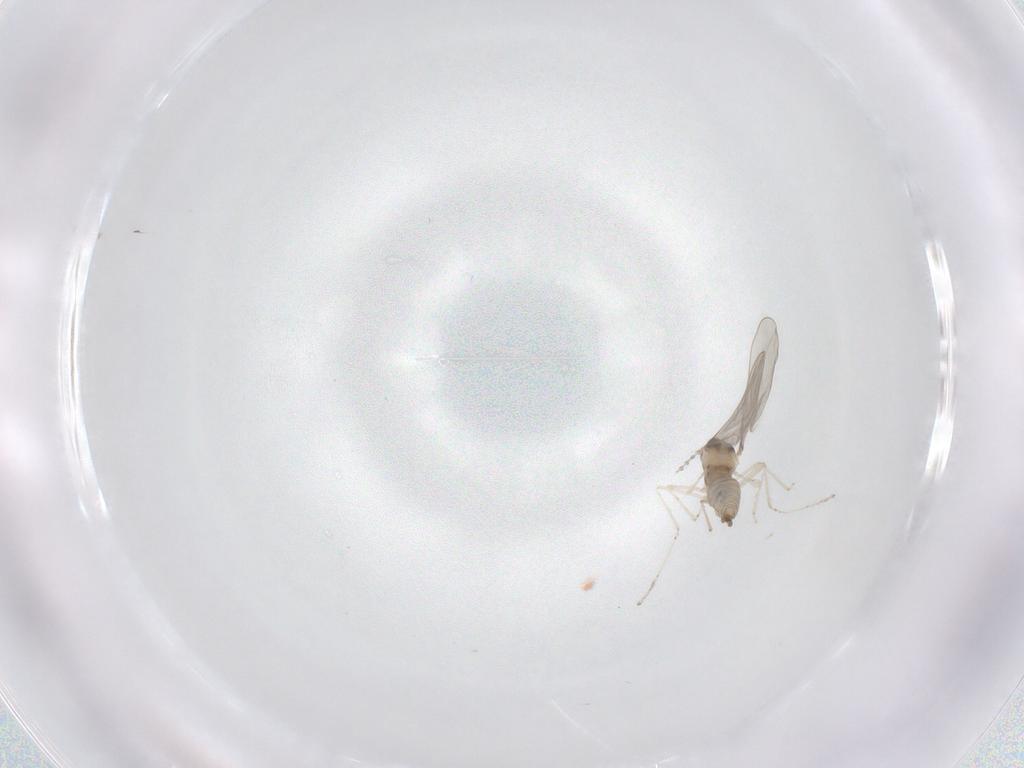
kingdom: Animalia
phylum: Arthropoda
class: Insecta
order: Diptera
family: Cecidomyiidae
